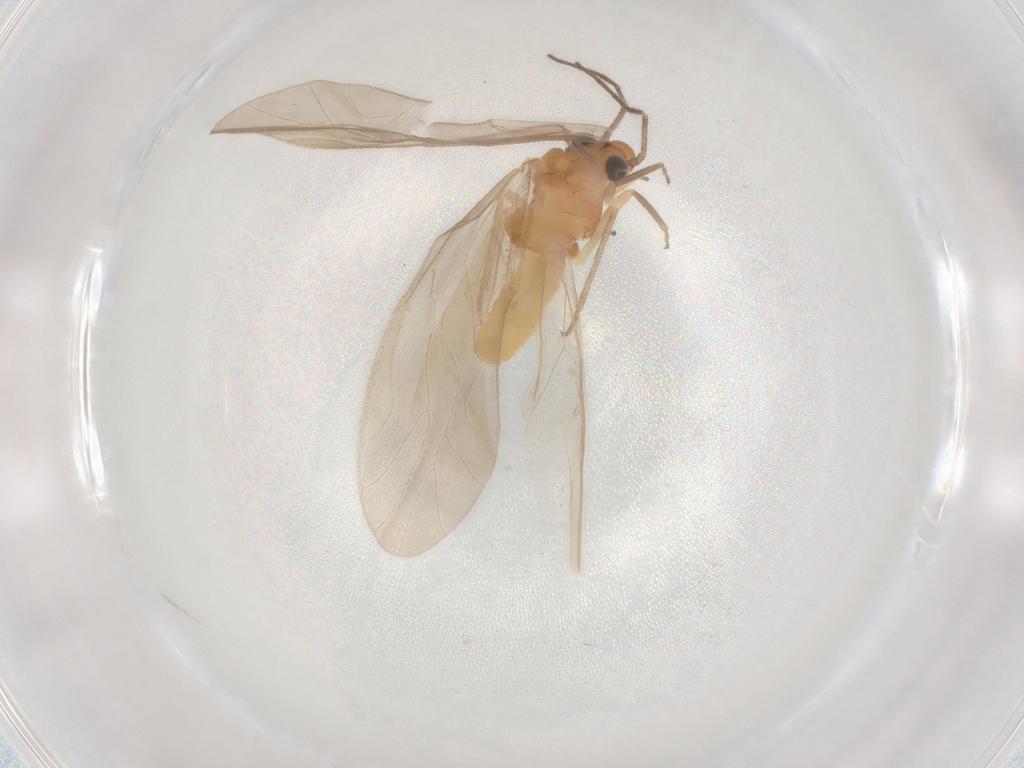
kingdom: Animalia
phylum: Arthropoda
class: Insecta
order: Psocodea
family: Caeciliusidae
